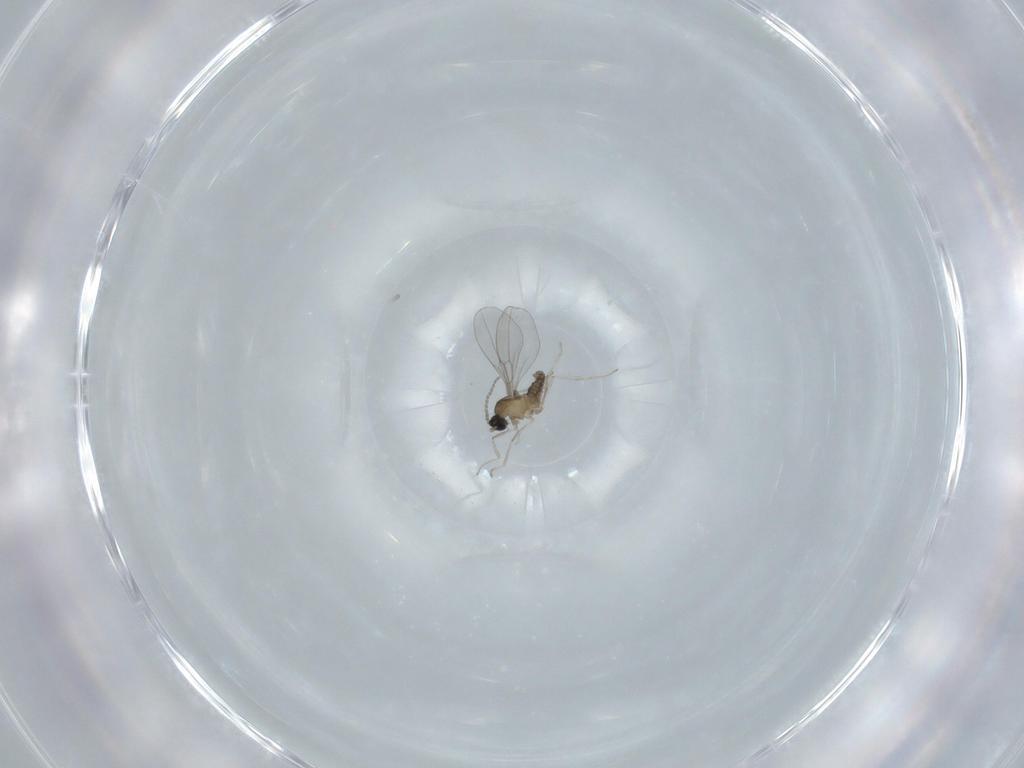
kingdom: Animalia
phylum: Arthropoda
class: Insecta
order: Diptera
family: Cecidomyiidae
